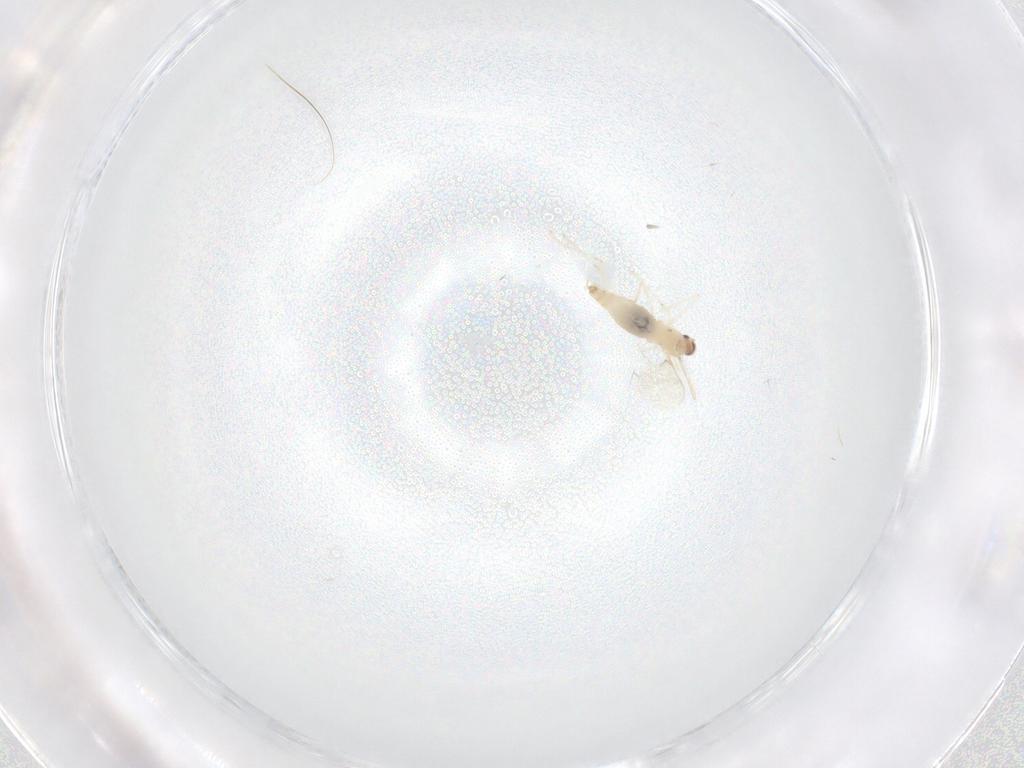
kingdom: Animalia
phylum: Arthropoda
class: Insecta
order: Diptera
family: Cecidomyiidae
